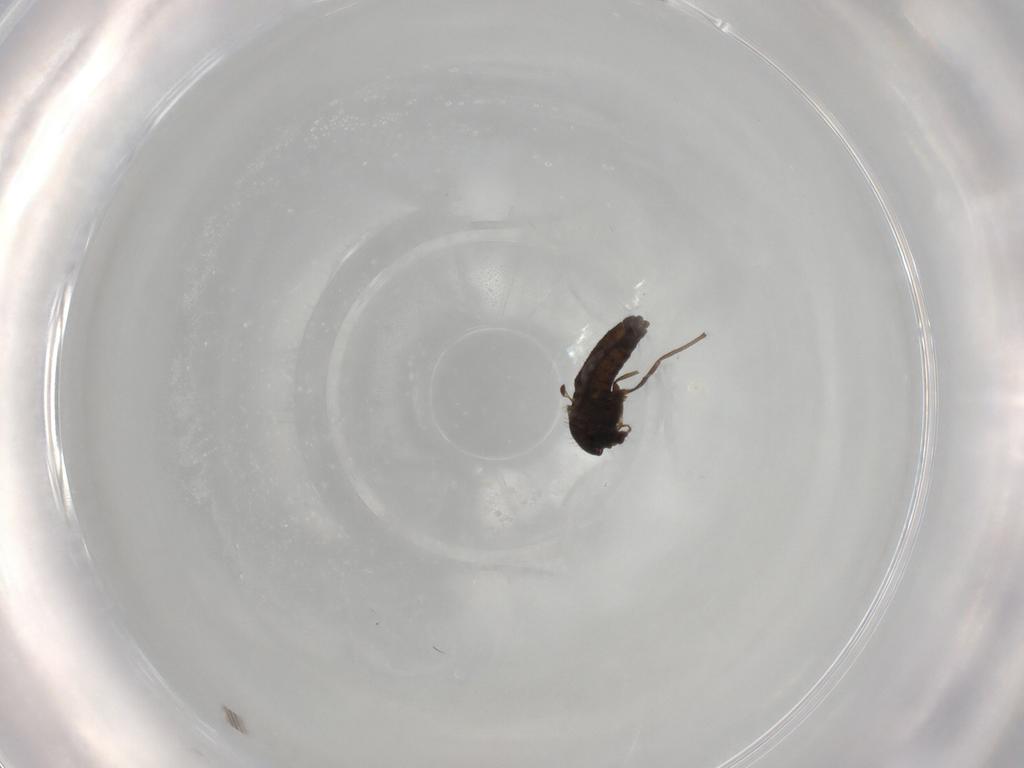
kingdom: Animalia
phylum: Arthropoda
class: Insecta
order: Diptera
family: Chironomidae
